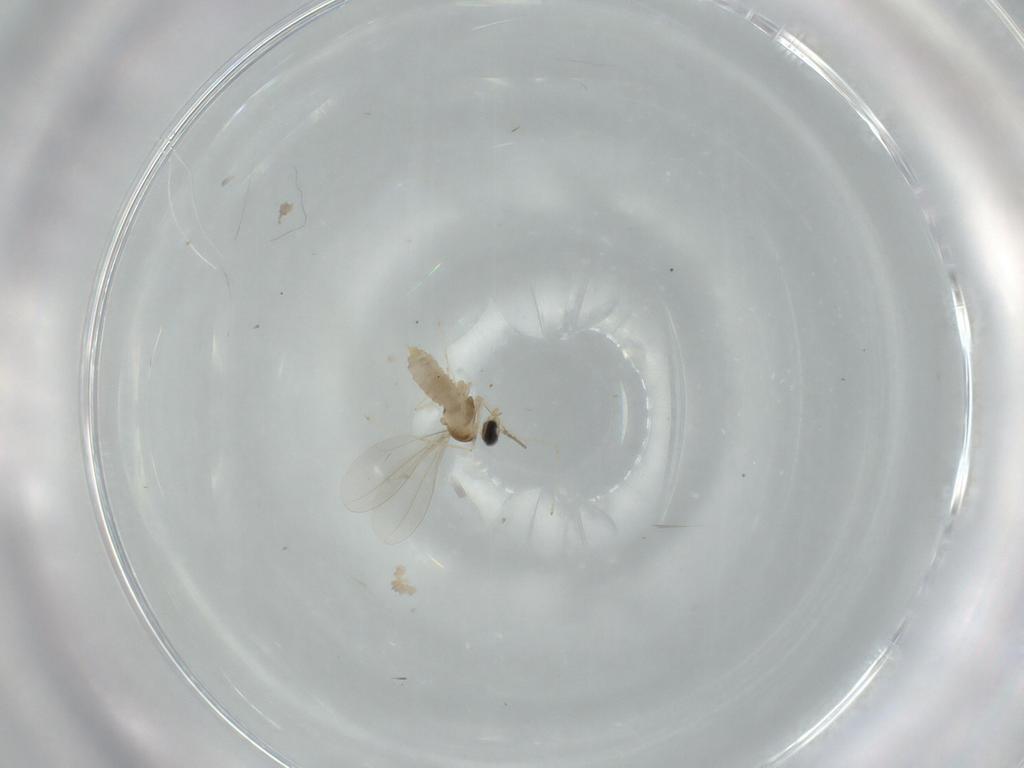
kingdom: Animalia
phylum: Arthropoda
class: Insecta
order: Diptera
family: Cecidomyiidae
